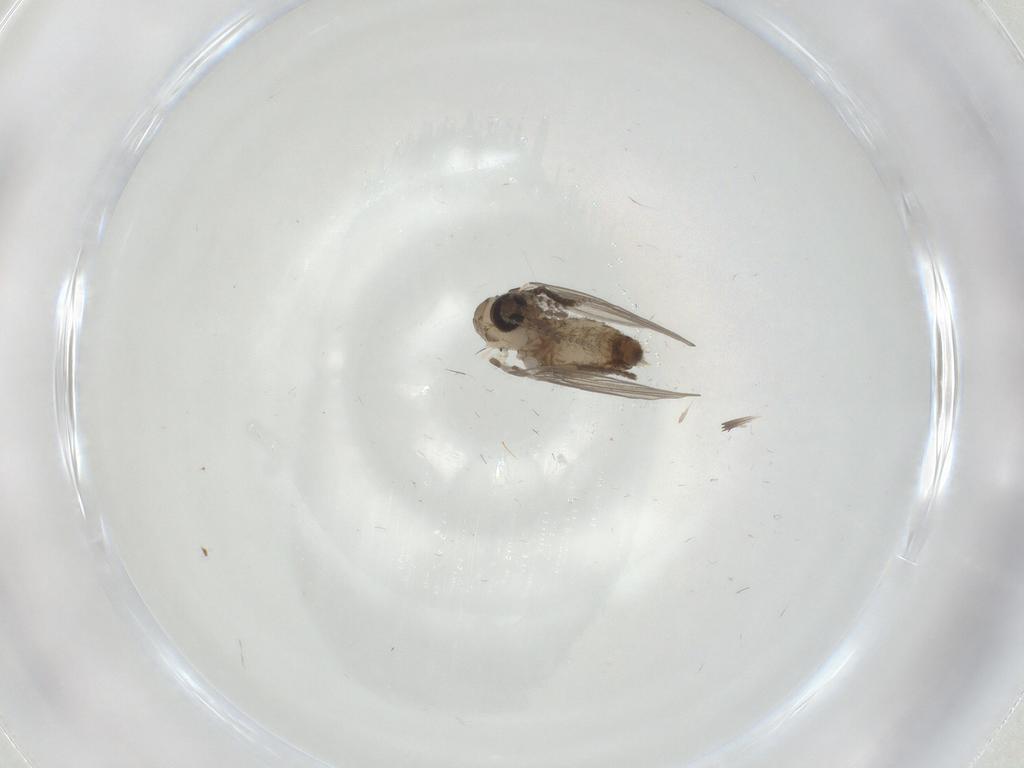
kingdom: Animalia
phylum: Arthropoda
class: Insecta
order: Diptera
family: Psychodidae
